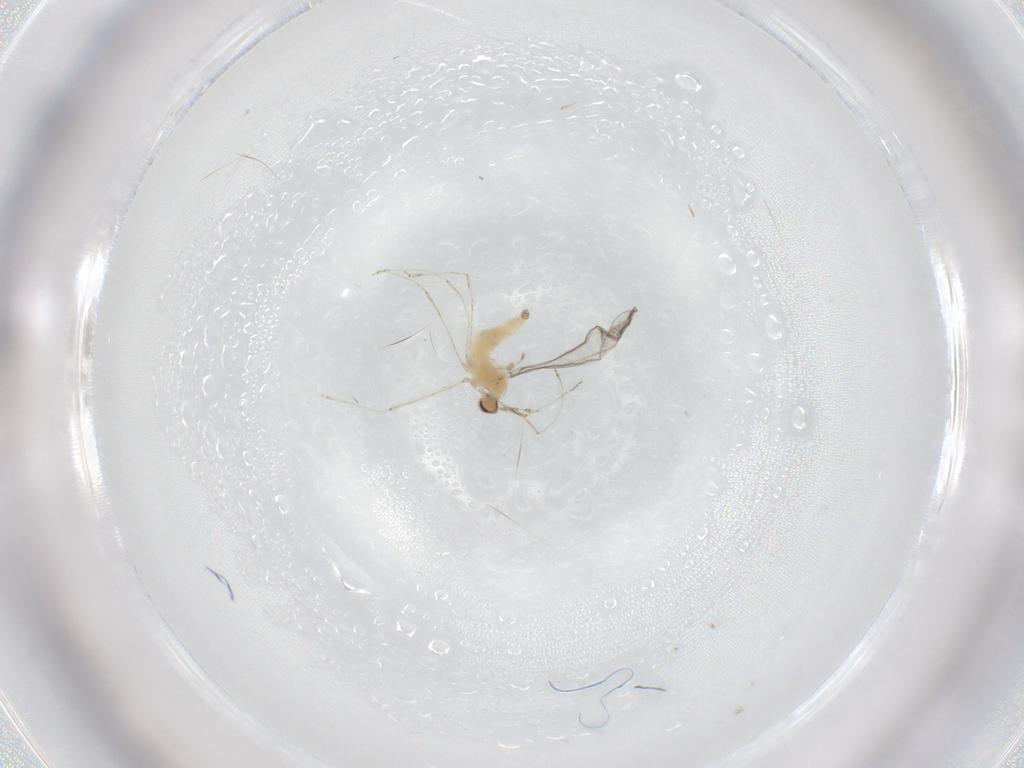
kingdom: Animalia
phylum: Arthropoda
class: Insecta
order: Diptera
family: Cecidomyiidae
